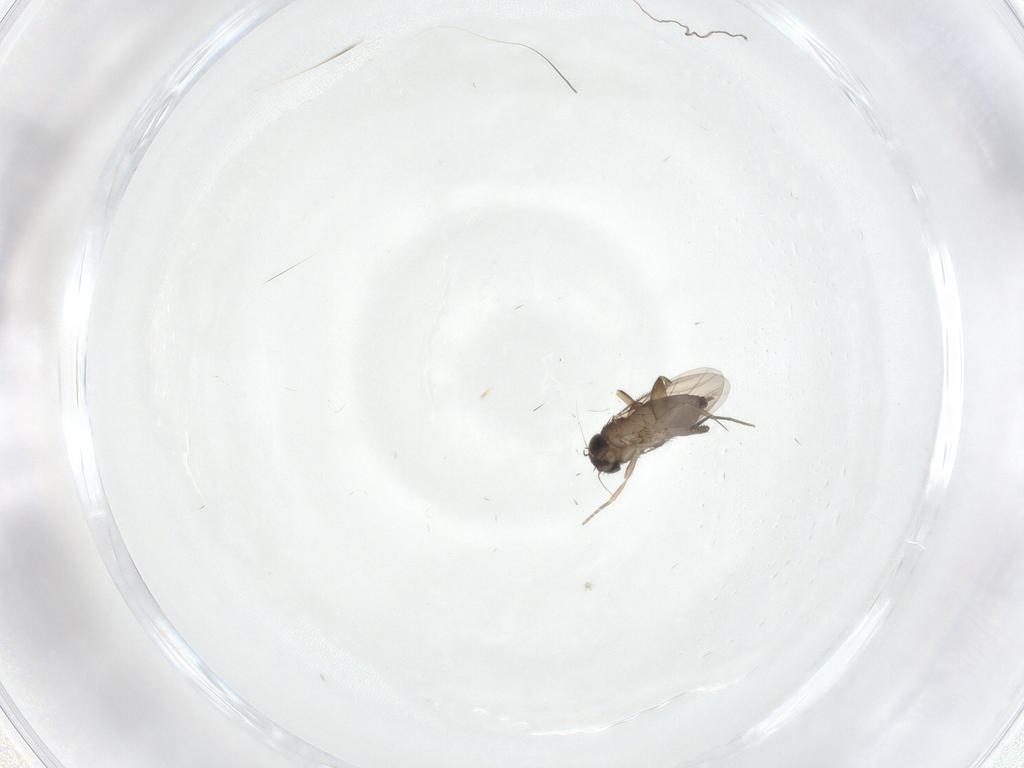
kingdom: Animalia
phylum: Arthropoda
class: Insecta
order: Diptera
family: Phoridae
